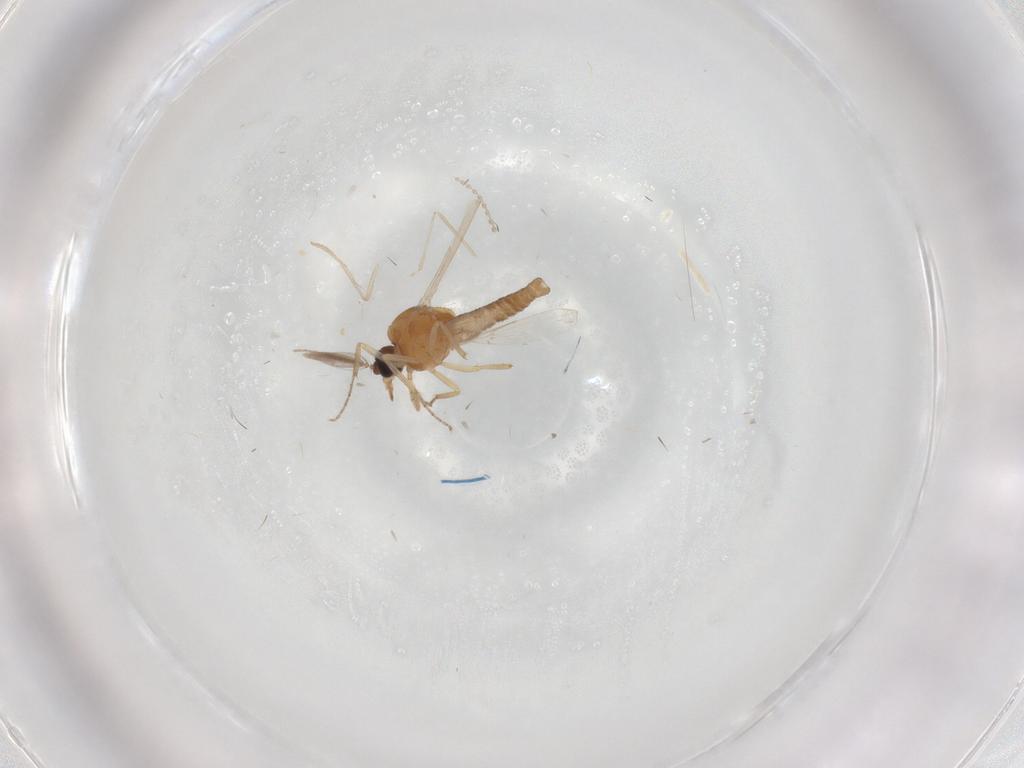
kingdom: Animalia
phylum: Arthropoda
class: Insecta
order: Diptera
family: Ceratopogonidae
